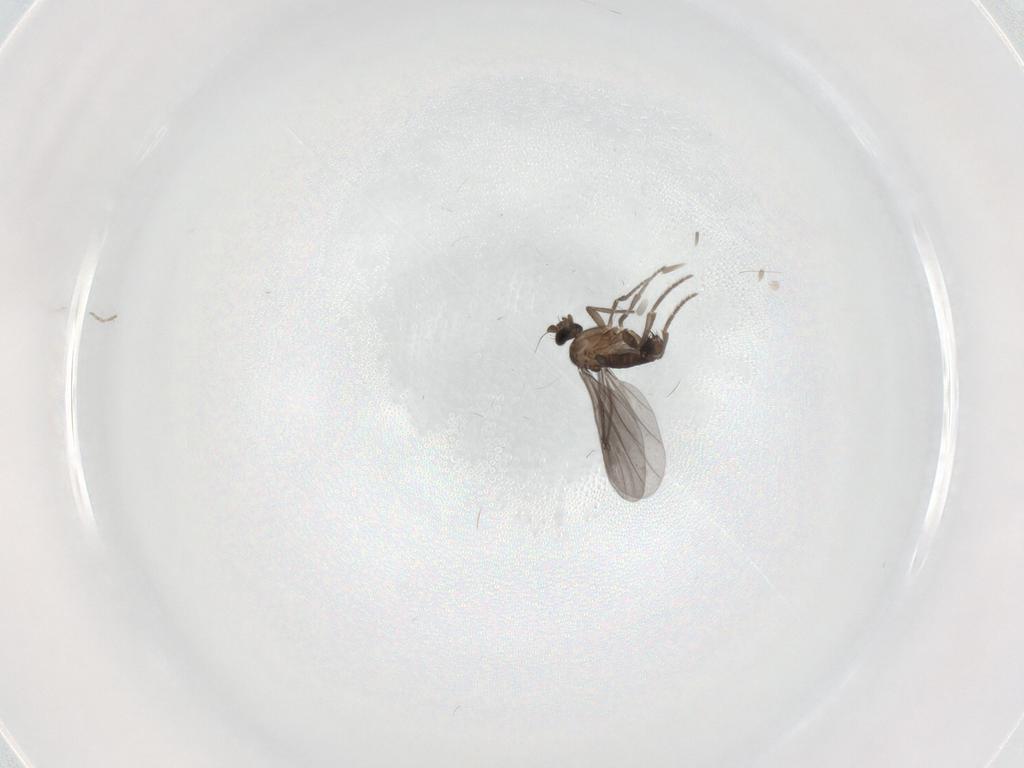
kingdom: Animalia
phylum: Arthropoda
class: Insecta
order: Diptera
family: Phoridae
